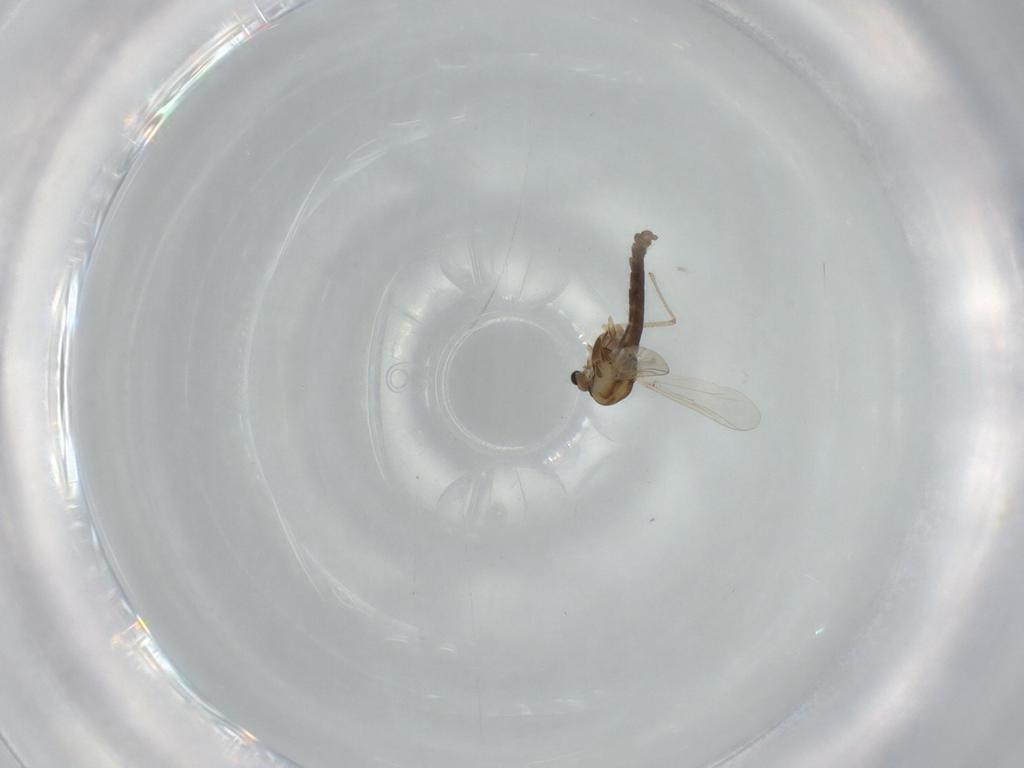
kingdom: Animalia
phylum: Arthropoda
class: Insecta
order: Diptera
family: Chironomidae
